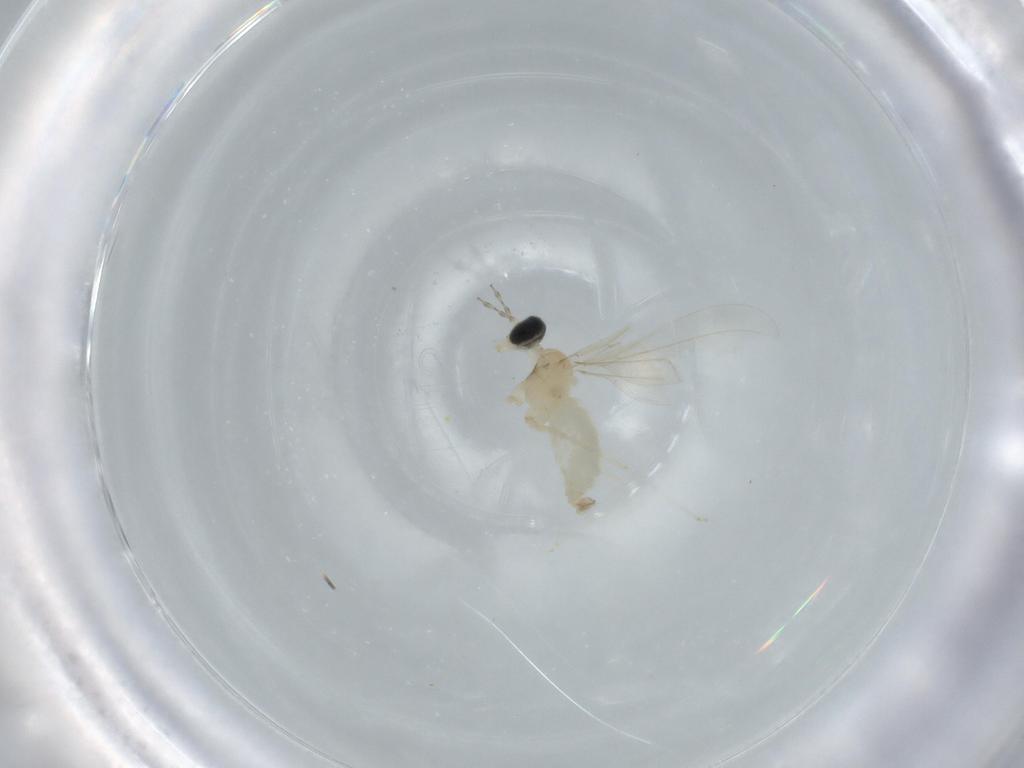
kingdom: Animalia
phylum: Arthropoda
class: Insecta
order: Diptera
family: Cecidomyiidae
